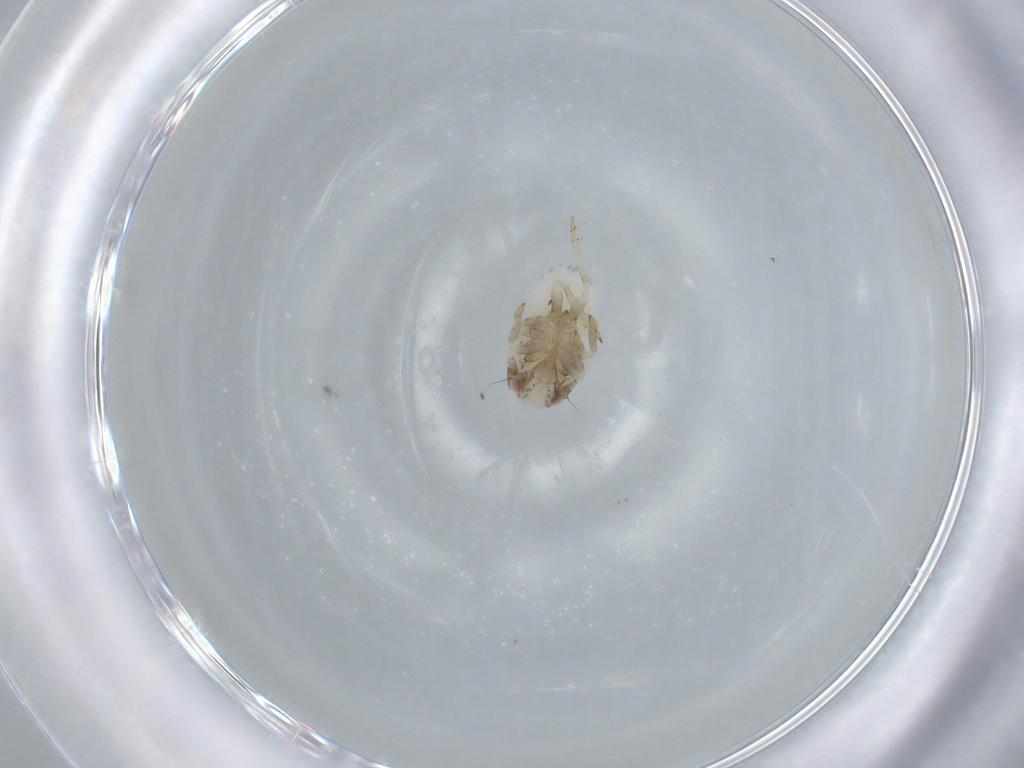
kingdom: Animalia
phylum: Arthropoda
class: Insecta
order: Hemiptera
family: Acanaloniidae
